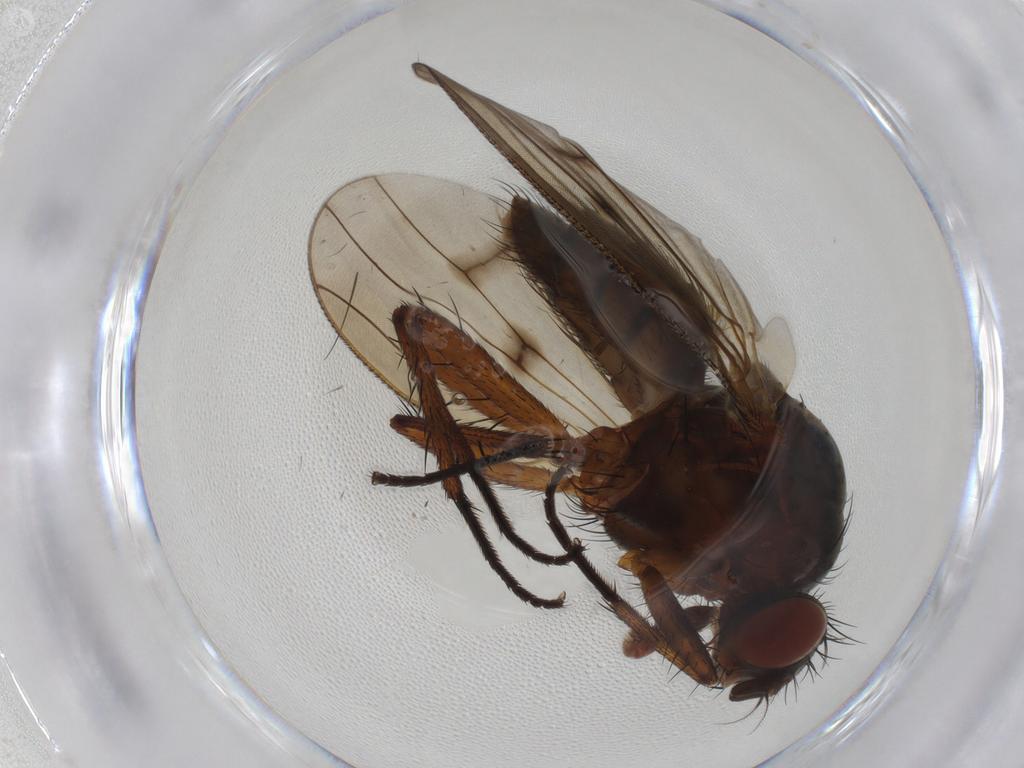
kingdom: Animalia
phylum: Arthropoda
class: Insecta
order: Diptera
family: Anthomyiidae
